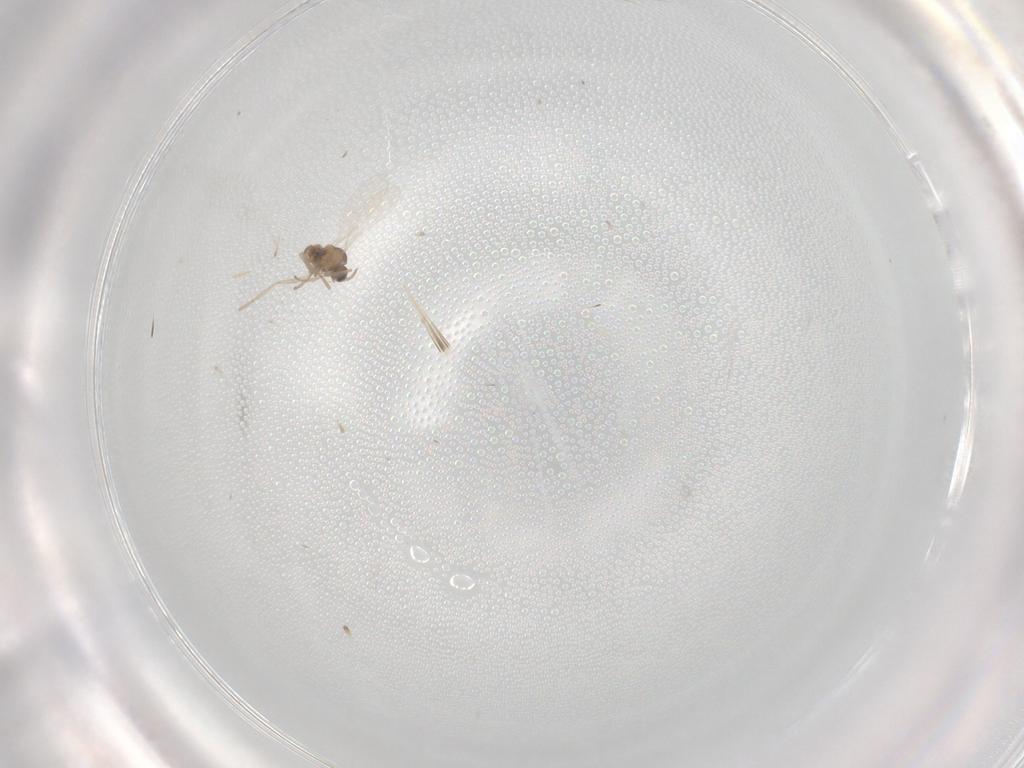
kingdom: Animalia
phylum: Arthropoda
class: Insecta
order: Diptera
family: Cecidomyiidae
